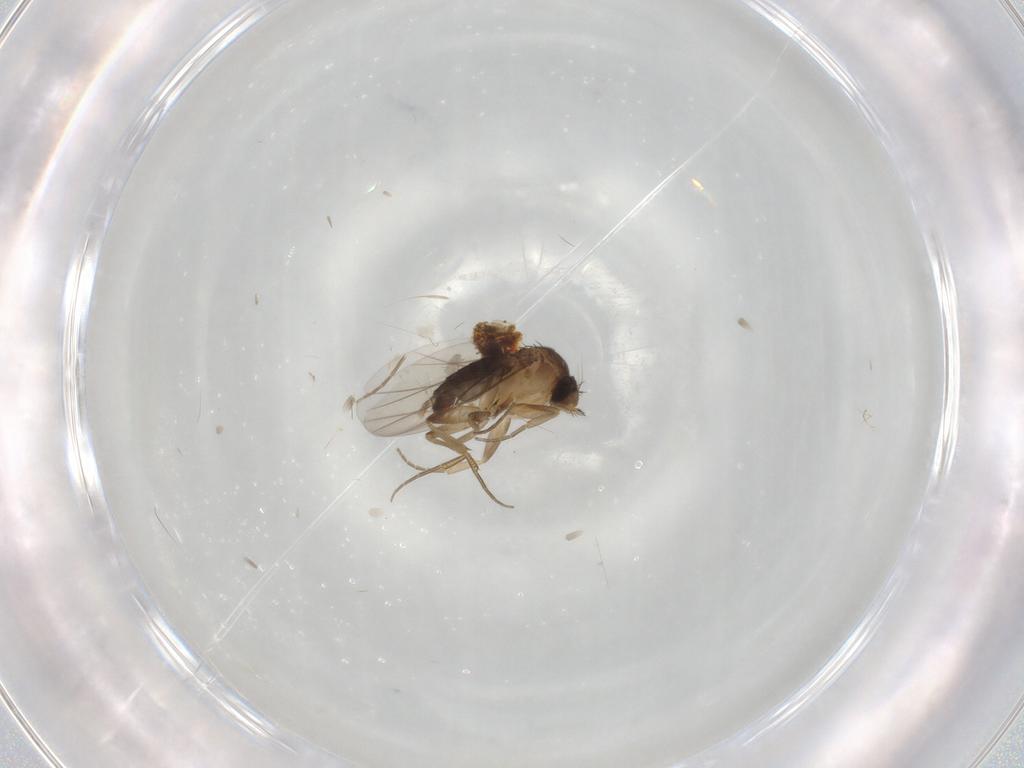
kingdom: Animalia
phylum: Arthropoda
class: Insecta
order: Diptera
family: Phoridae
